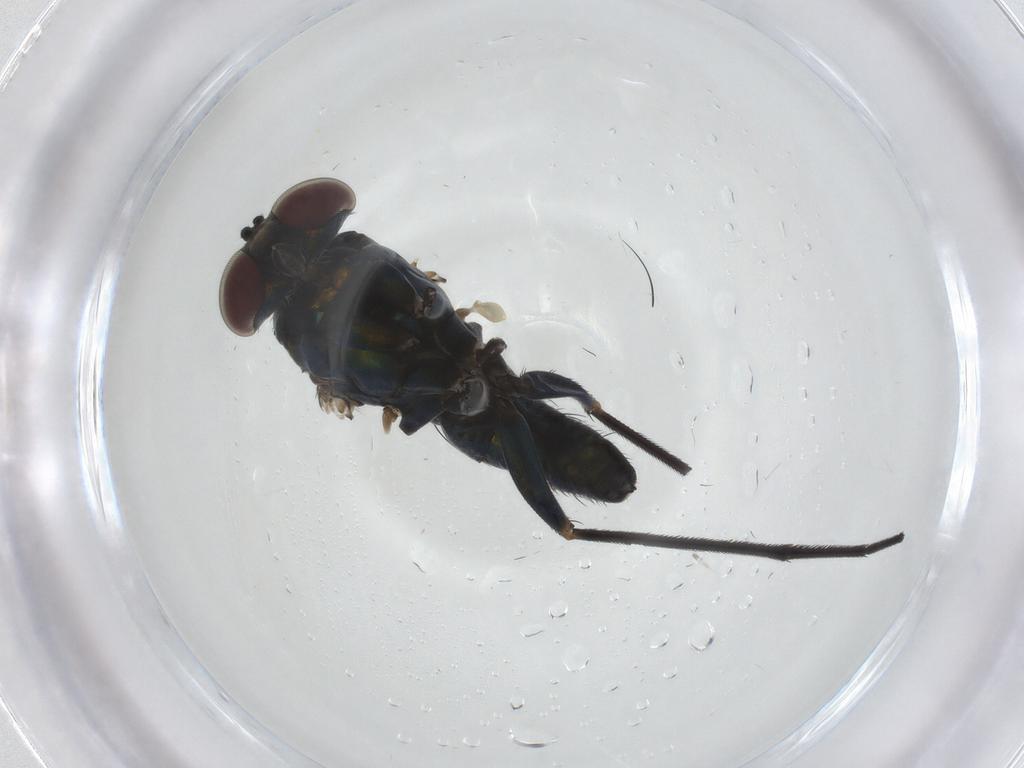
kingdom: Animalia
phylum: Arthropoda
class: Insecta
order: Diptera
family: Dolichopodidae
